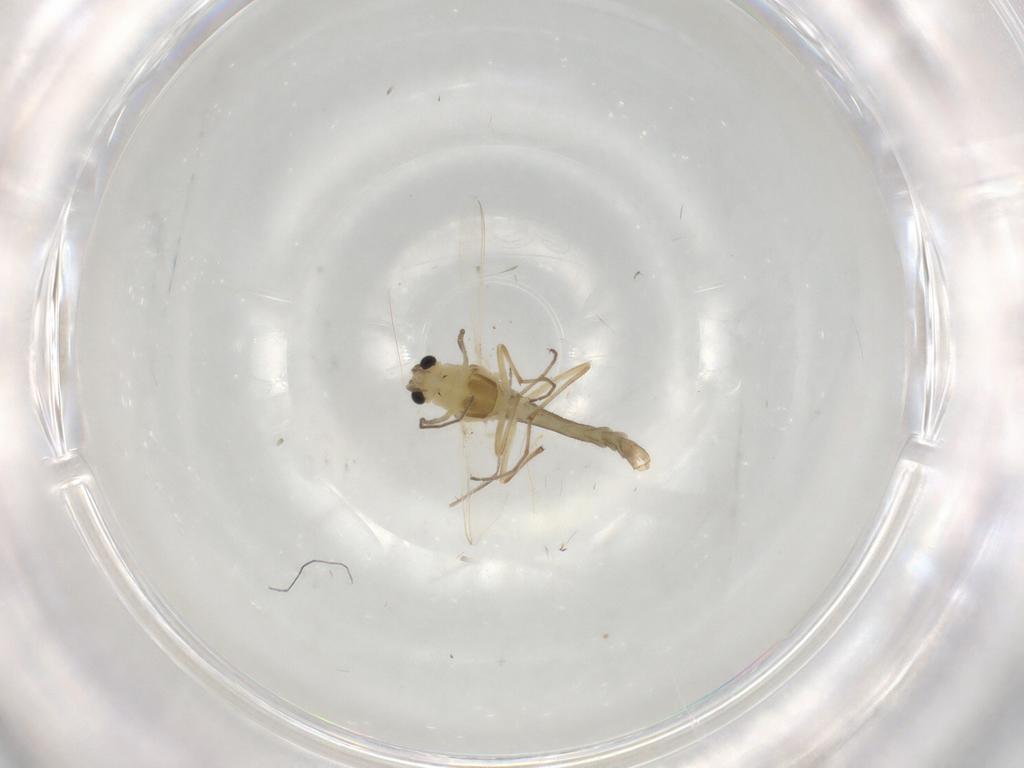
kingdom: Animalia
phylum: Arthropoda
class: Insecta
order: Diptera
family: Chironomidae
